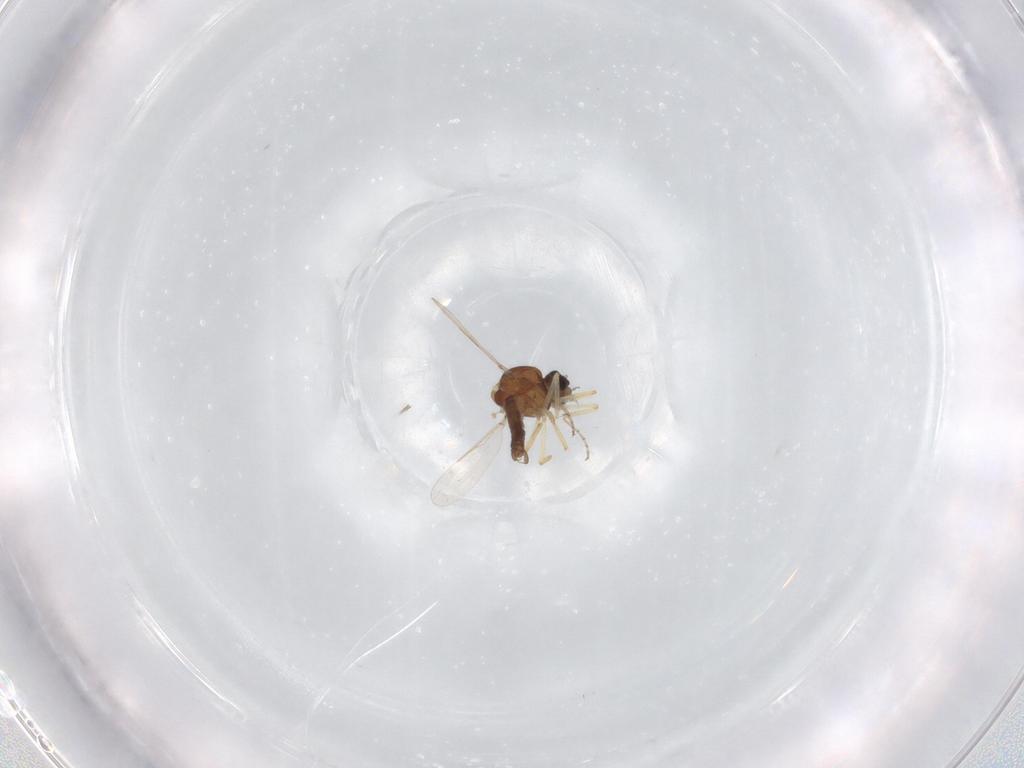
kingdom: Animalia
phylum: Arthropoda
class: Insecta
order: Diptera
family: Ceratopogonidae
